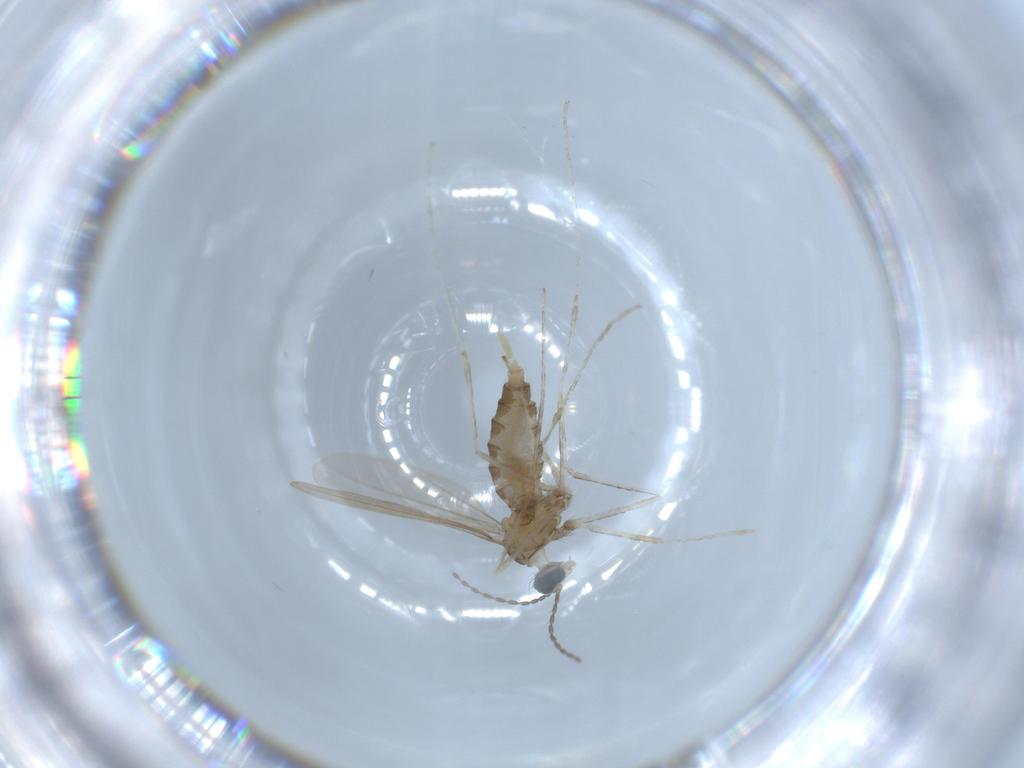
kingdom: Animalia
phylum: Arthropoda
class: Insecta
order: Diptera
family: Cecidomyiidae
